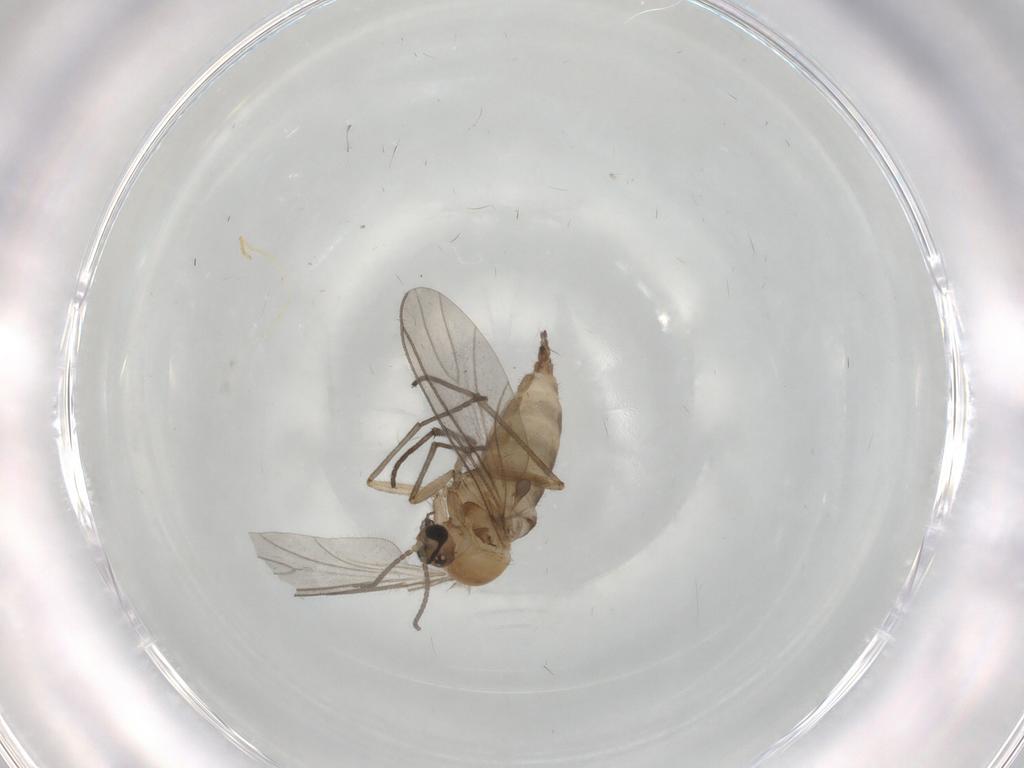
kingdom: Animalia
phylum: Arthropoda
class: Insecta
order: Diptera
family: Sciaridae
